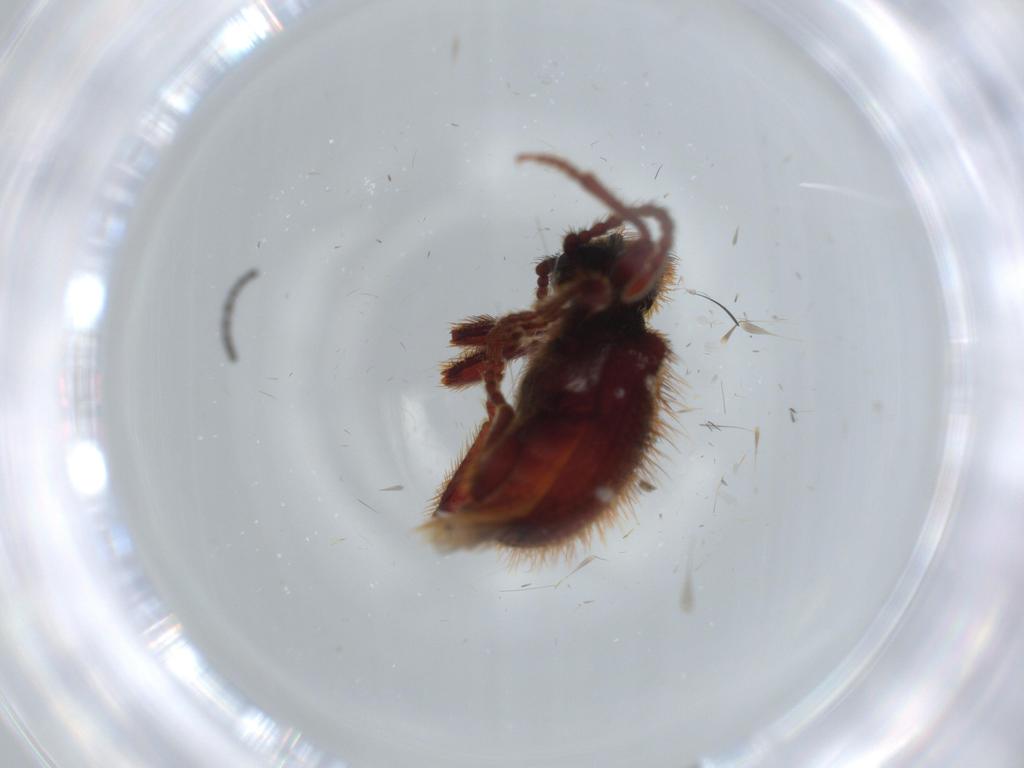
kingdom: Animalia
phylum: Arthropoda
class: Insecta
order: Coleoptera
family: Mycetophagidae
